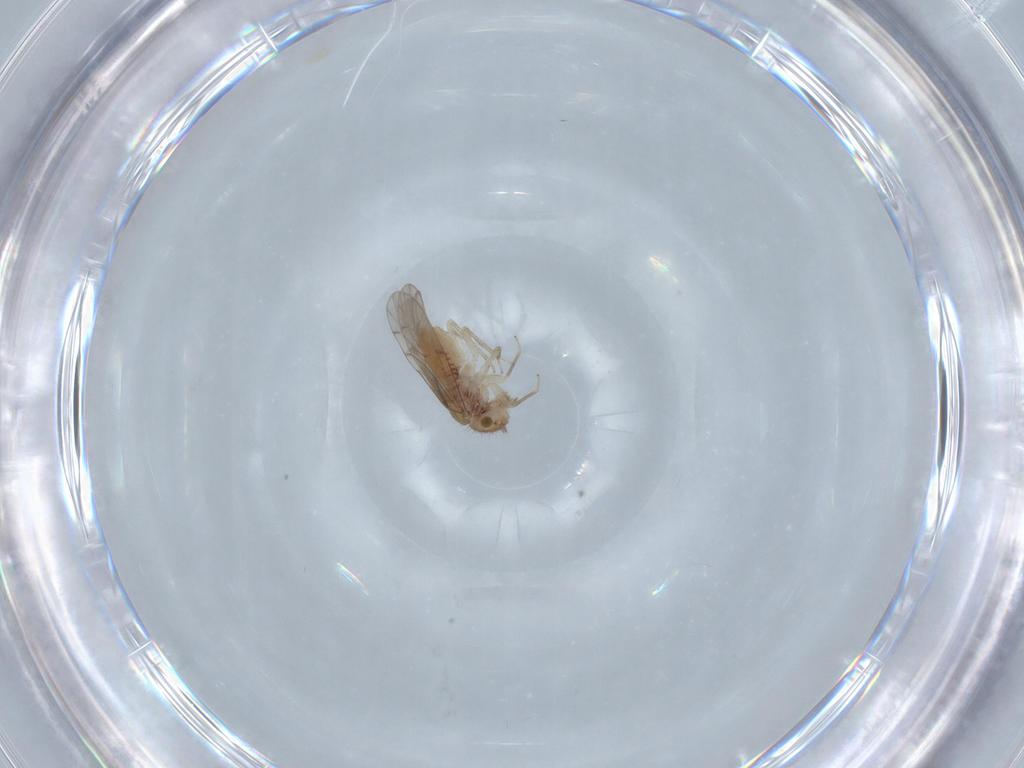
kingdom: Animalia
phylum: Arthropoda
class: Insecta
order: Psocodea
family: Ectopsocidae
